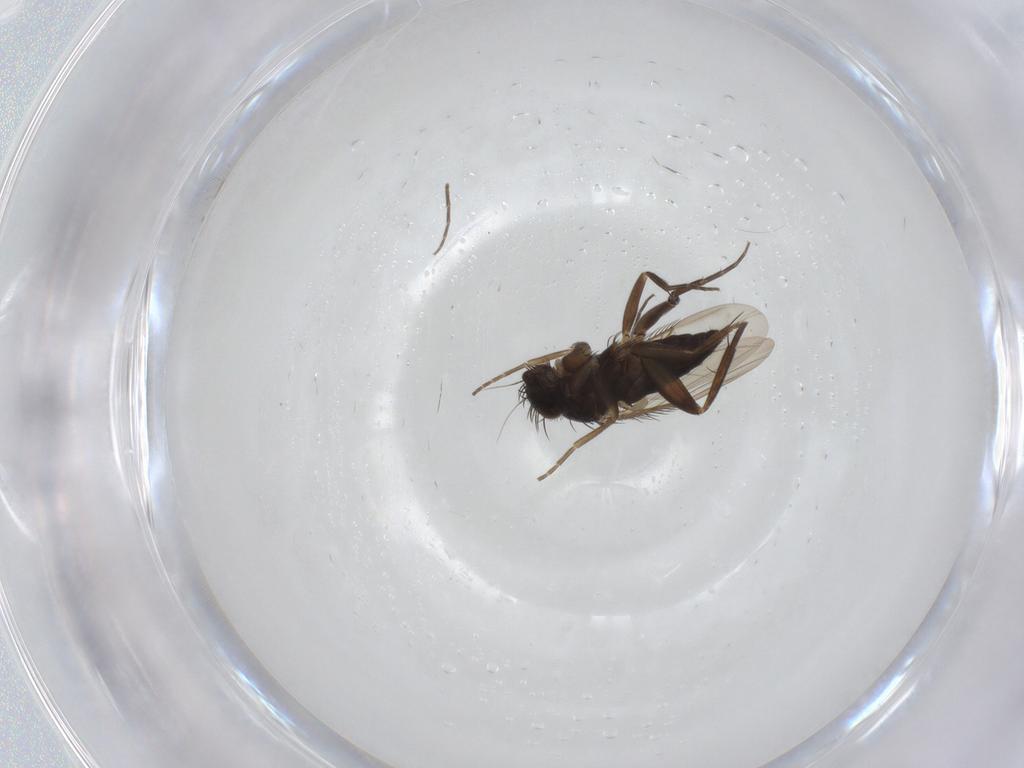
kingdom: Animalia
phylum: Arthropoda
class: Insecta
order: Diptera
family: Phoridae
